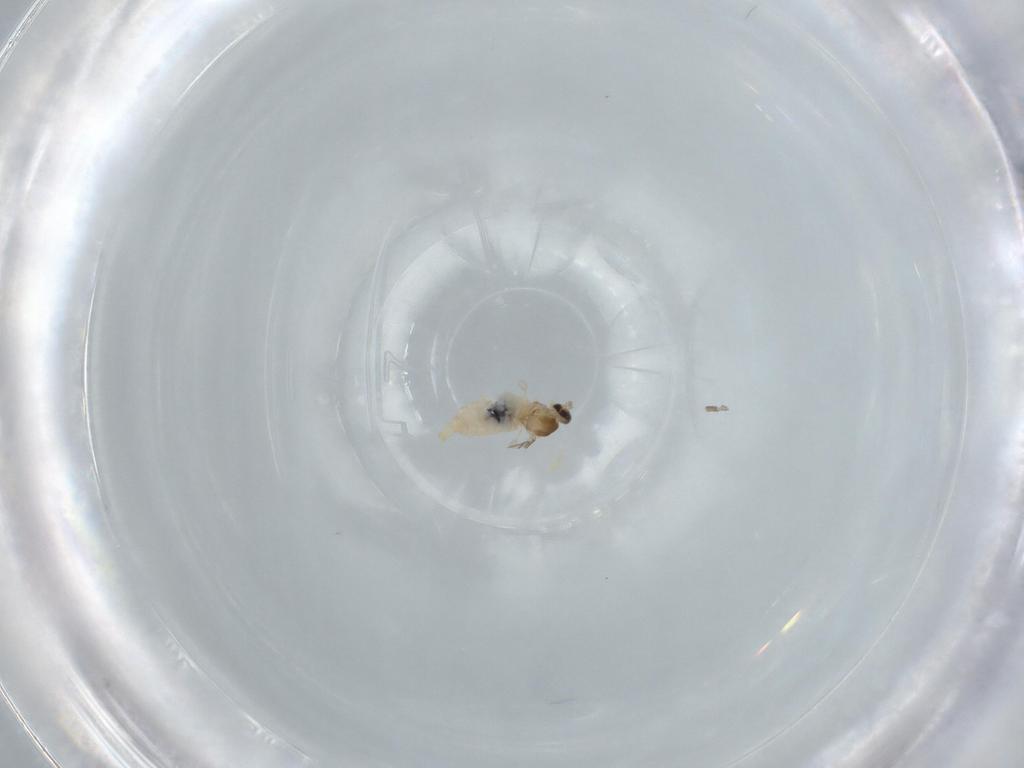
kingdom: Animalia
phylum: Arthropoda
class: Insecta
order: Diptera
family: Cecidomyiidae
